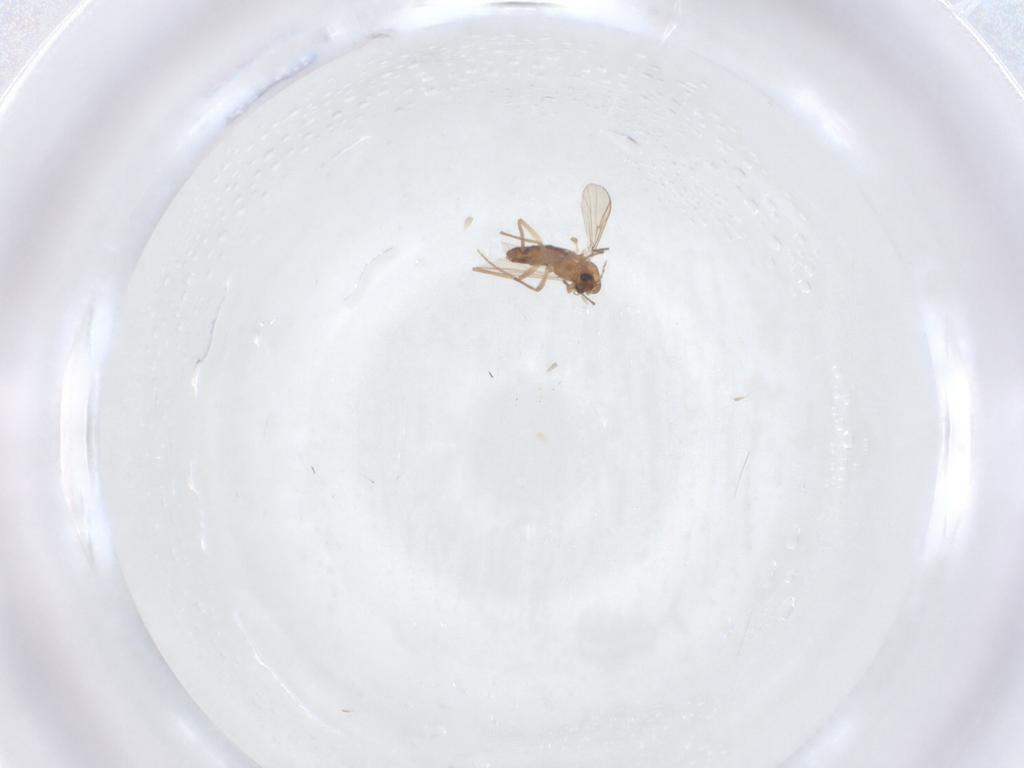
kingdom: Animalia
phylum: Arthropoda
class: Insecta
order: Diptera
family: Chironomidae
